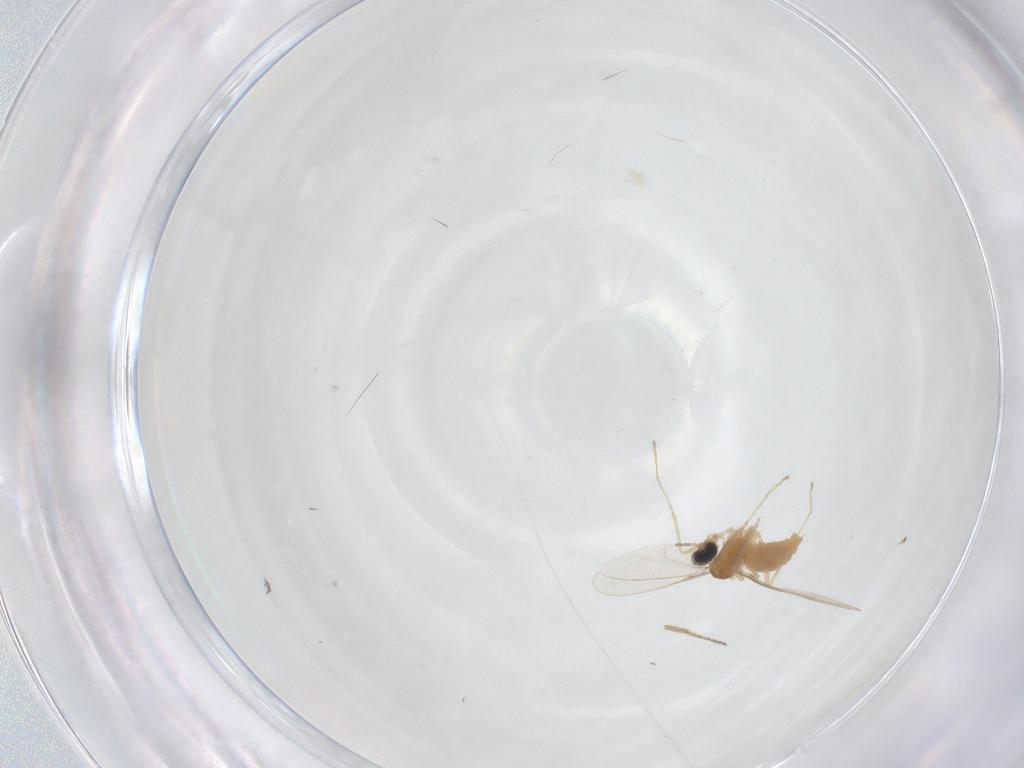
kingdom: Animalia
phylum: Arthropoda
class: Insecta
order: Diptera
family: Cecidomyiidae
